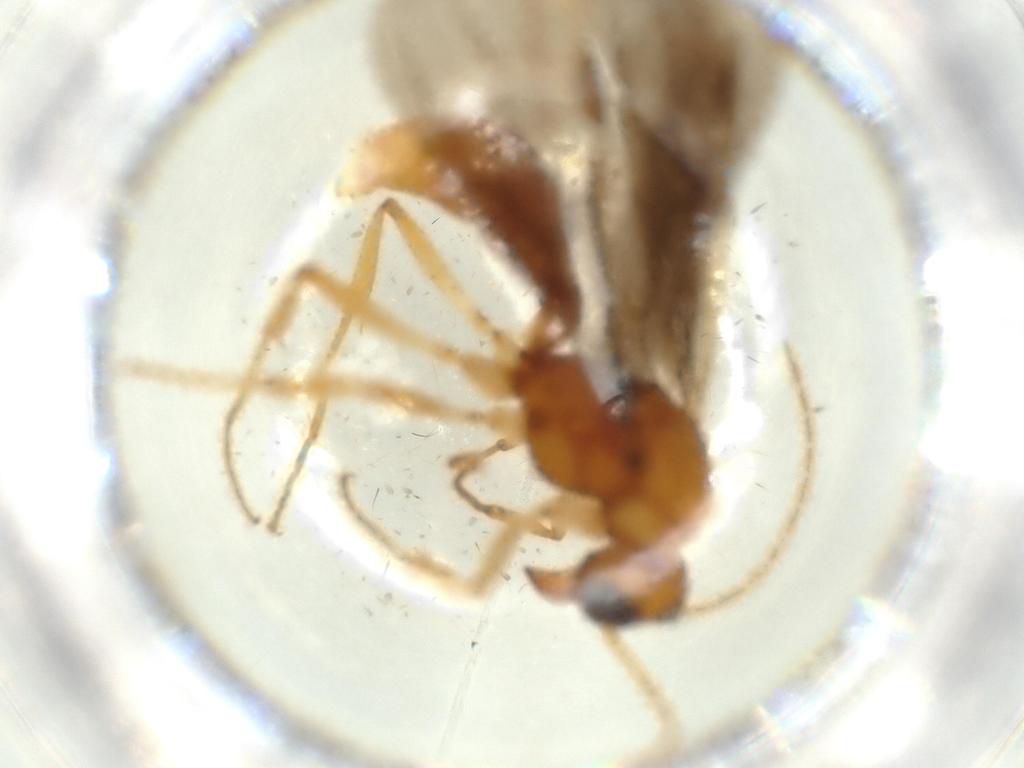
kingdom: Animalia
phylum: Arthropoda
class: Insecta
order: Hymenoptera
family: Formicidae
